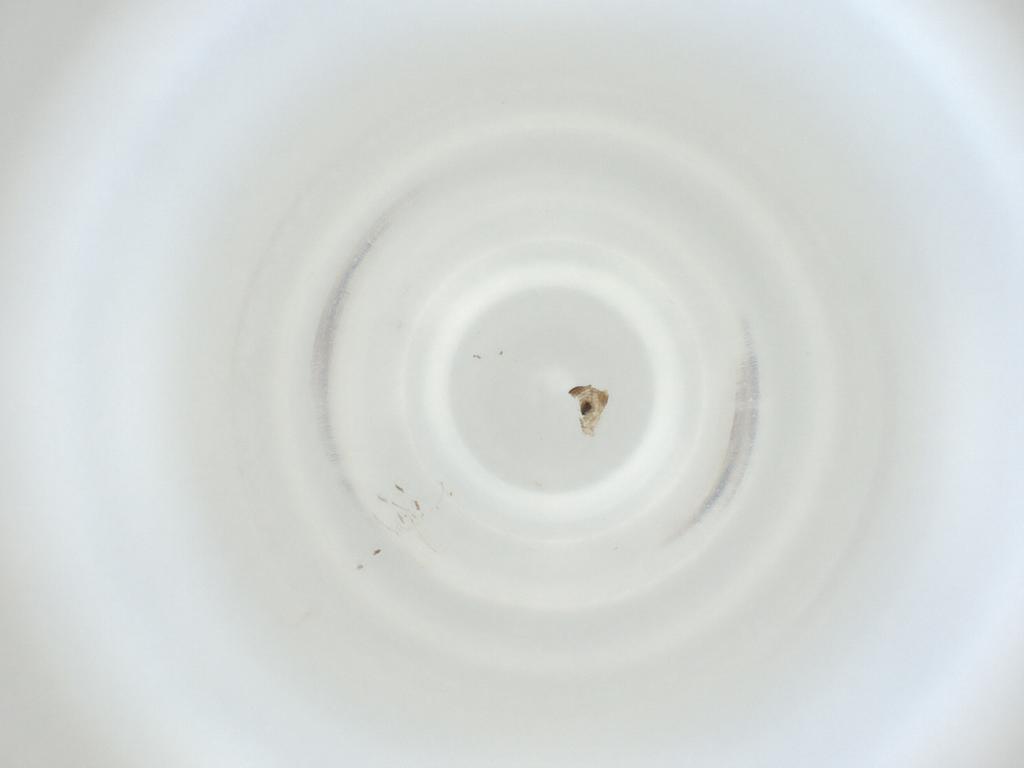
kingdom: Animalia
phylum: Arthropoda
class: Insecta
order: Diptera
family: Cecidomyiidae
